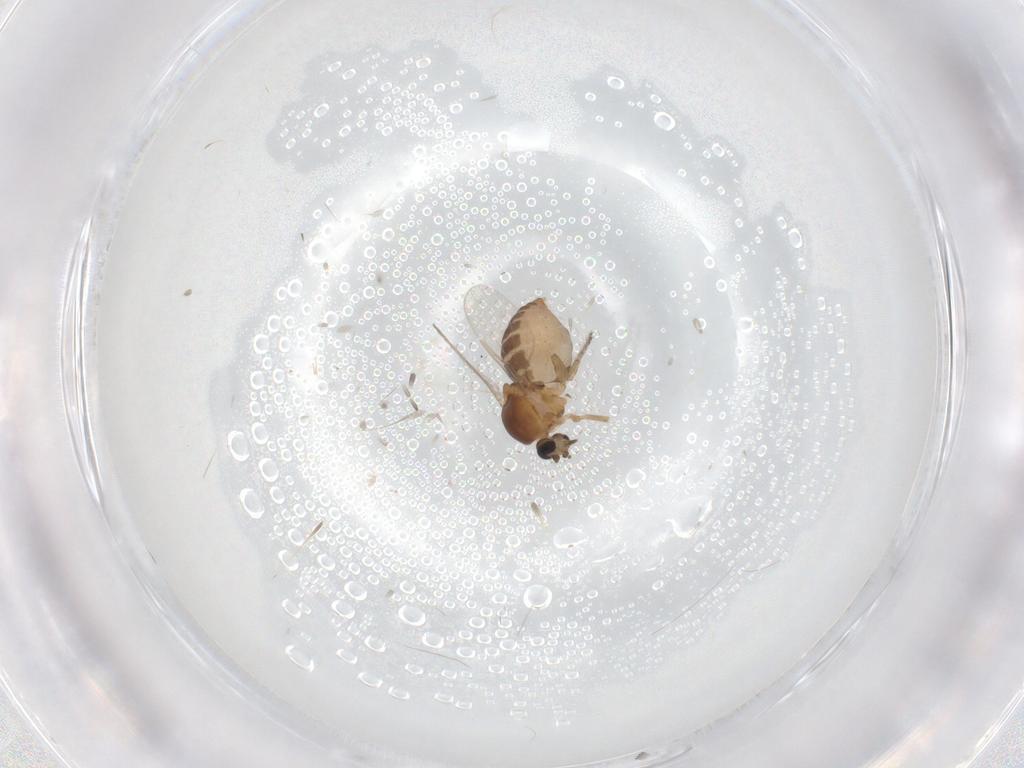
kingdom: Animalia
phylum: Arthropoda
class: Insecta
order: Diptera
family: Ceratopogonidae
